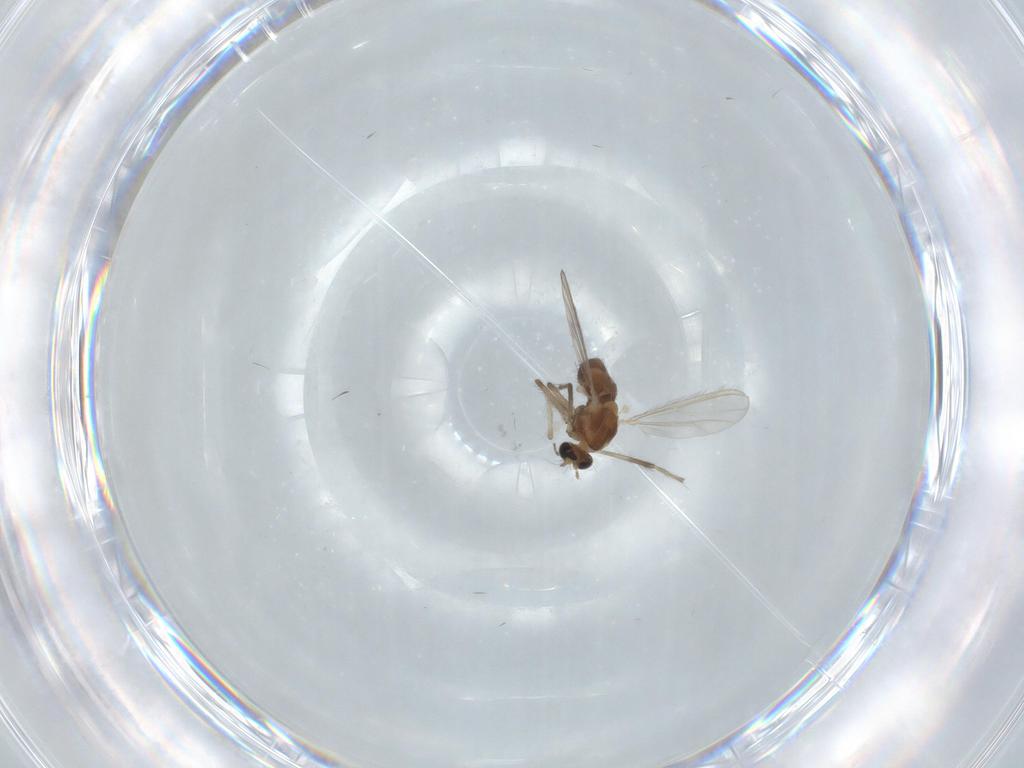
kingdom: Animalia
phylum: Arthropoda
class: Insecta
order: Diptera
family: Chironomidae
